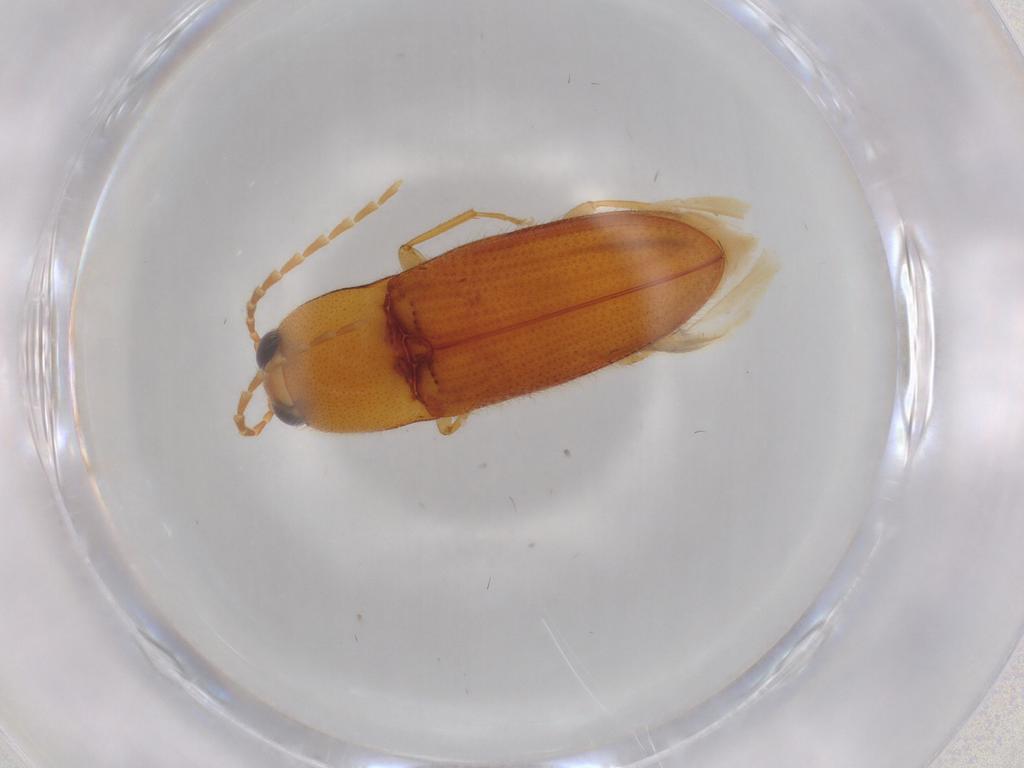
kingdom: Animalia
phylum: Arthropoda
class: Insecta
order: Coleoptera
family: Elateridae
